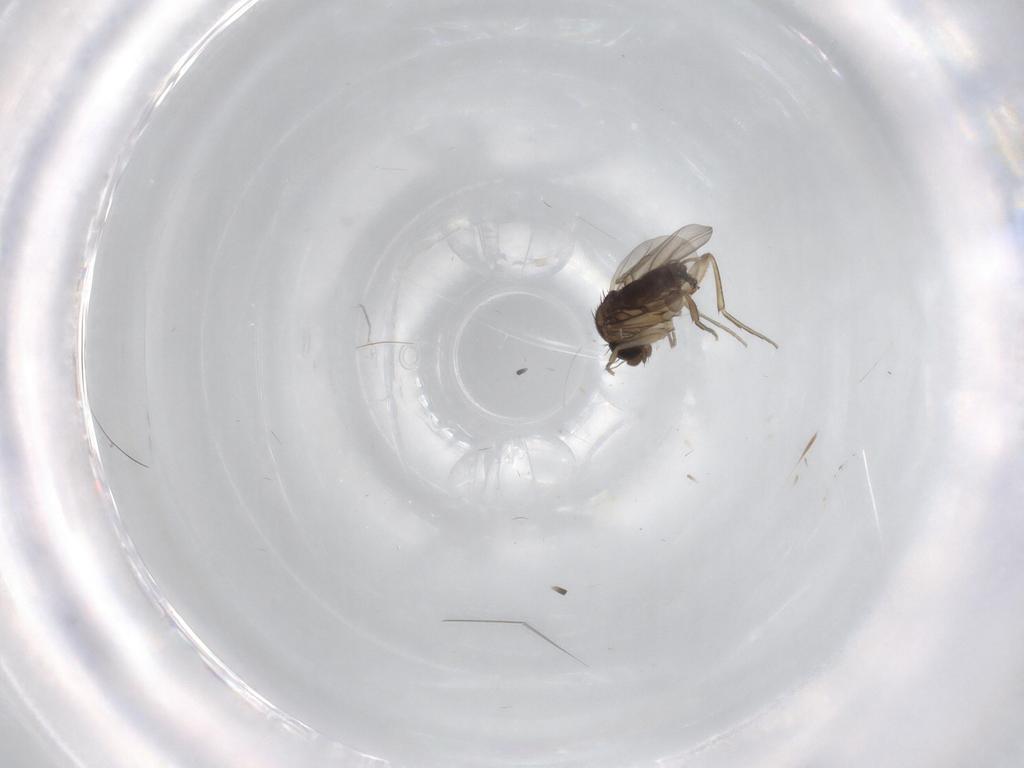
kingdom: Animalia
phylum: Arthropoda
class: Insecta
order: Diptera
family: Phoridae
